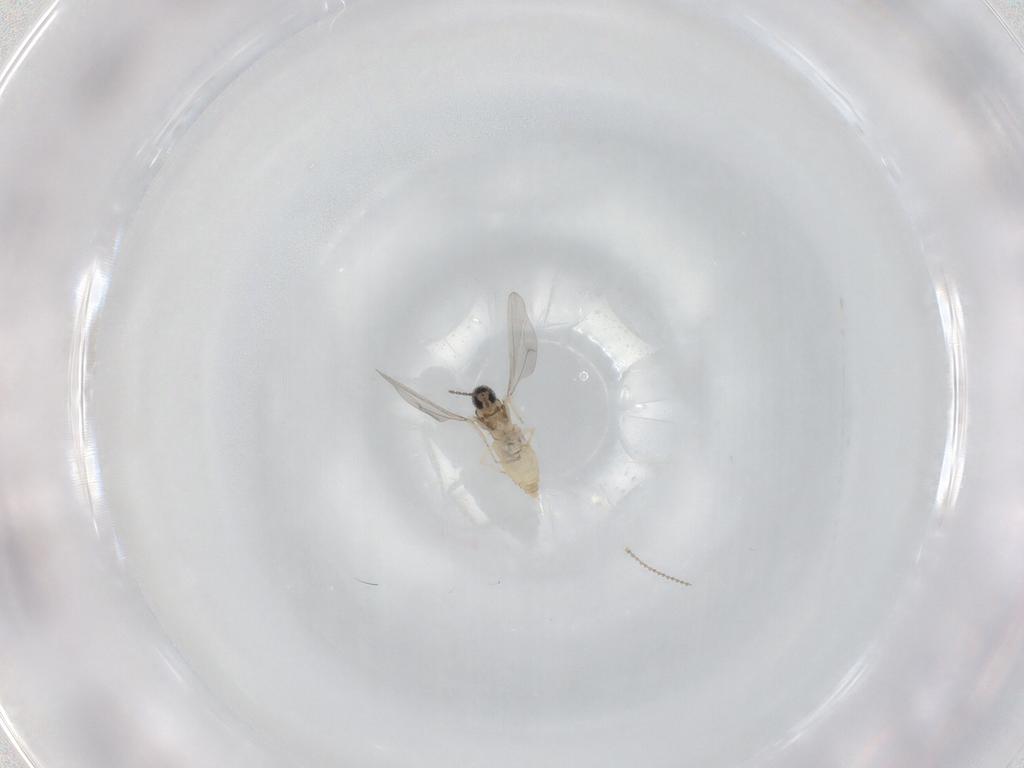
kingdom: Animalia
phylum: Arthropoda
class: Insecta
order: Diptera
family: Cecidomyiidae
